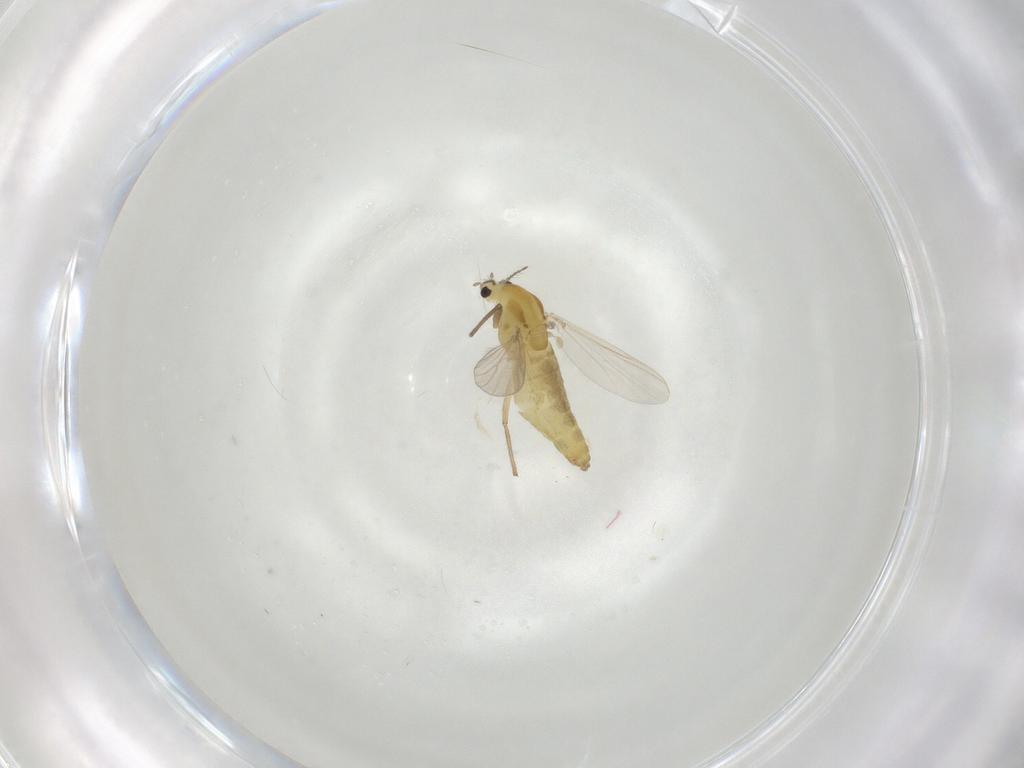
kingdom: Animalia
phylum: Arthropoda
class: Insecta
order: Diptera
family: Chironomidae
